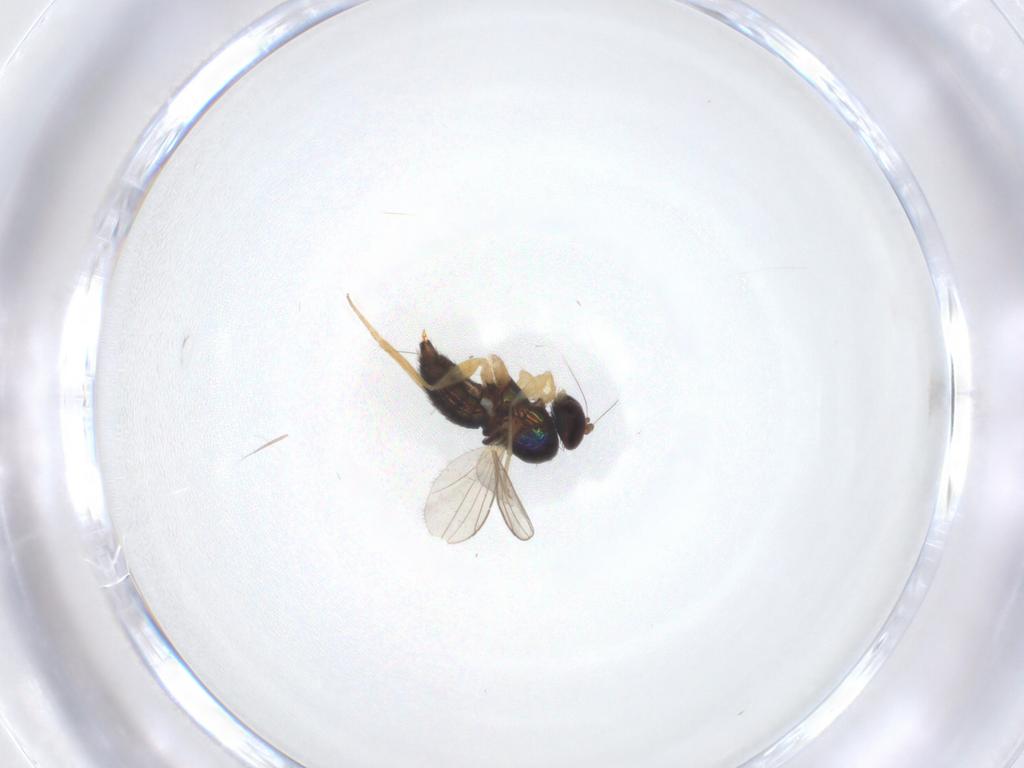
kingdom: Animalia
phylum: Arthropoda
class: Insecta
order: Diptera
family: Dolichopodidae
